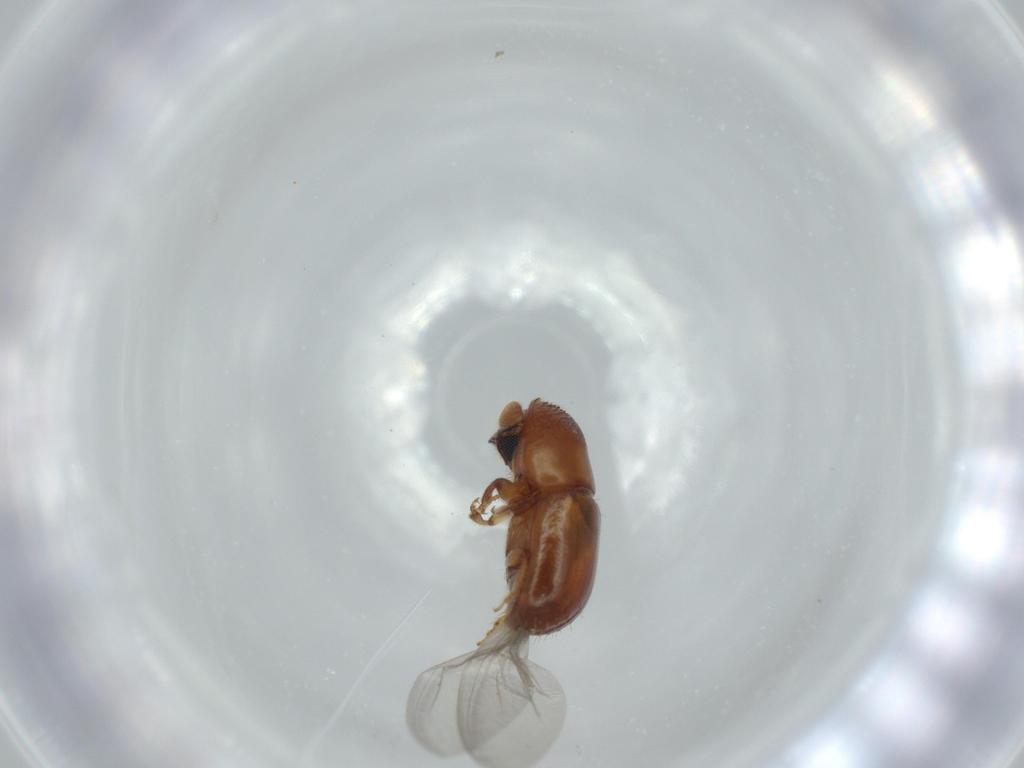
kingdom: Animalia
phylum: Arthropoda
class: Insecta
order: Coleoptera
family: Curculionidae
